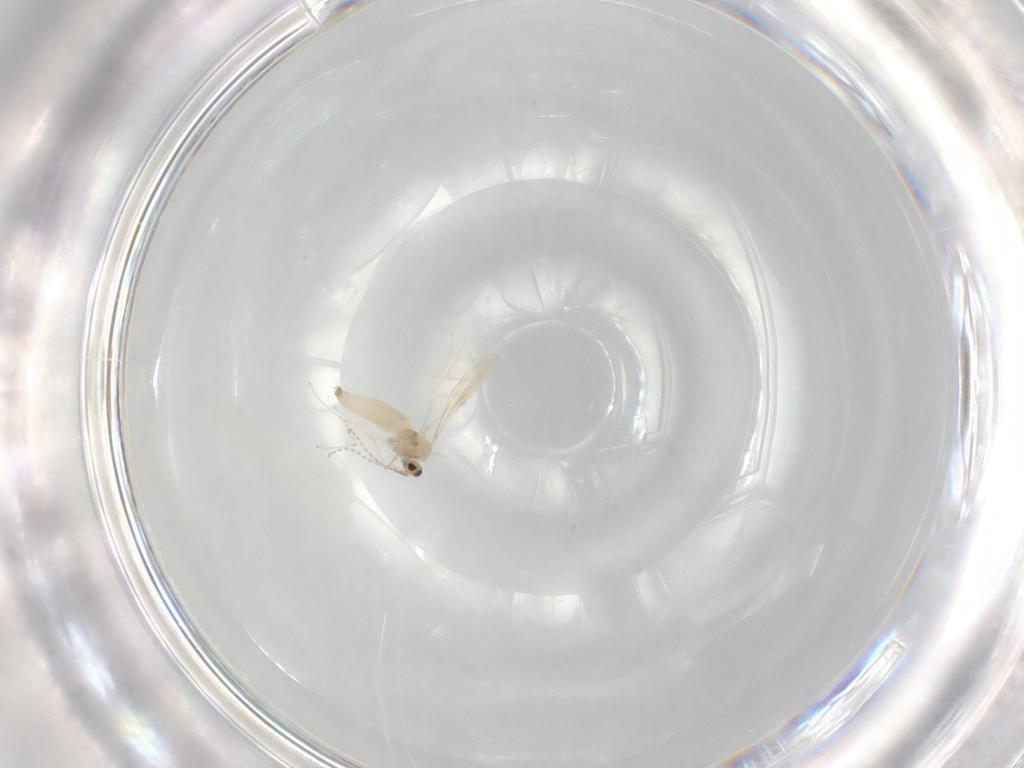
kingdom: Animalia
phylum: Arthropoda
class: Insecta
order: Diptera
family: Cecidomyiidae
